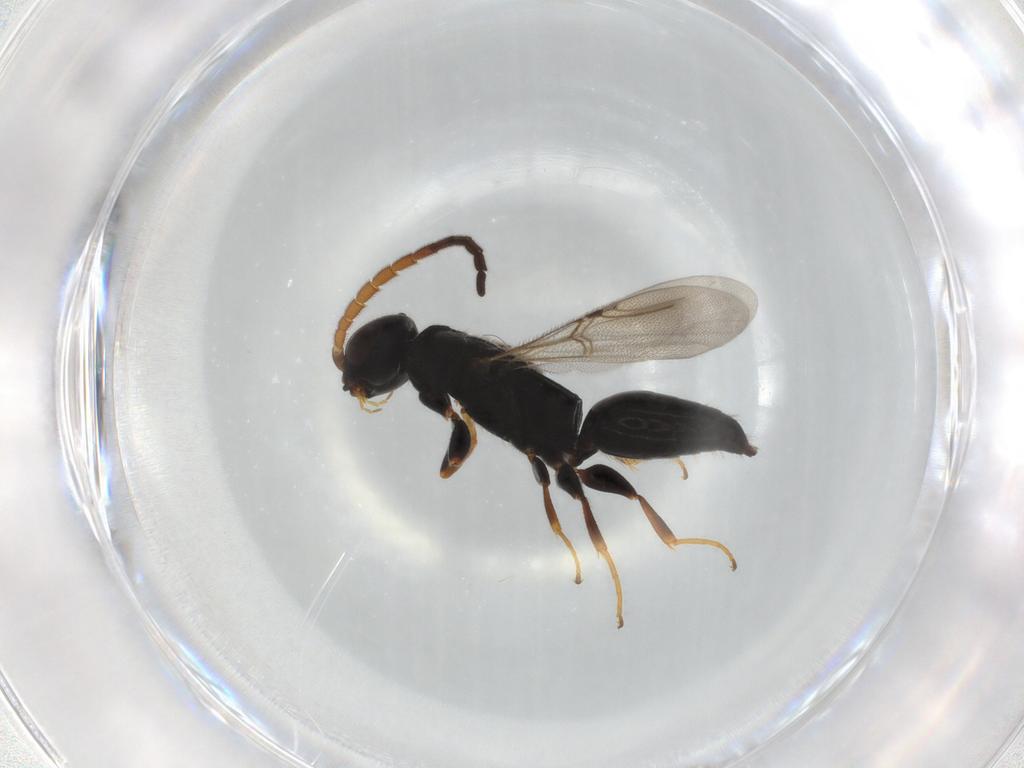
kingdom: Animalia
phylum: Arthropoda
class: Insecta
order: Hymenoptera
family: Bethylidae
